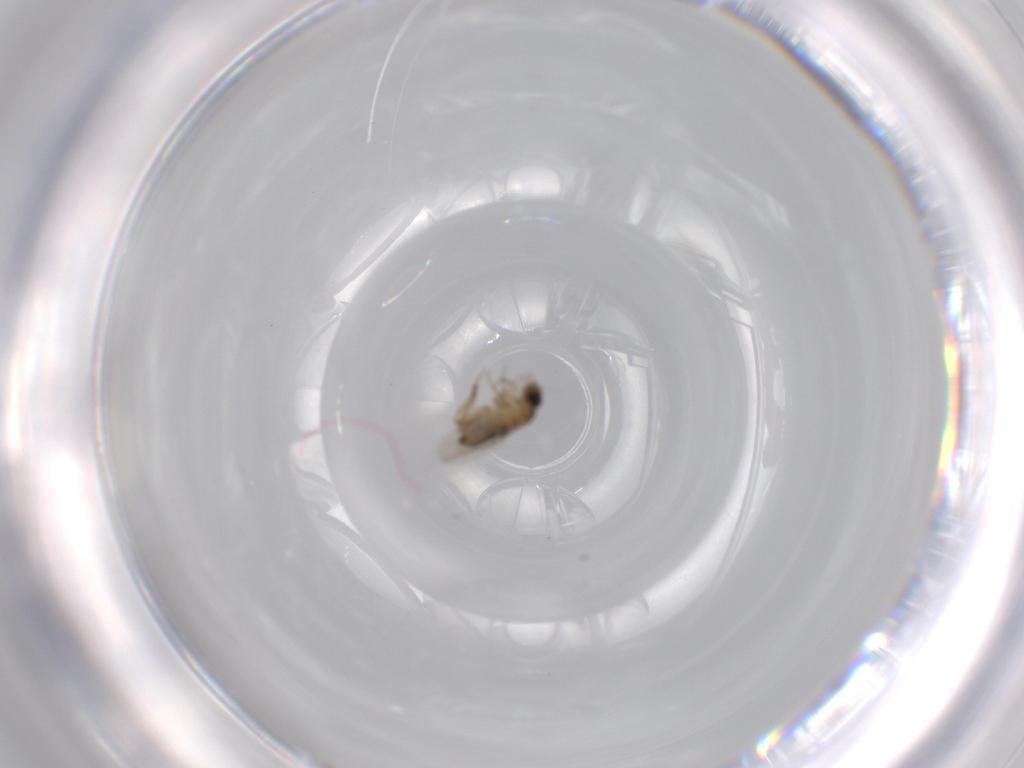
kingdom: Animalia
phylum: Arthropoda
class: Insecta
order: Diptera
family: Phoridae
